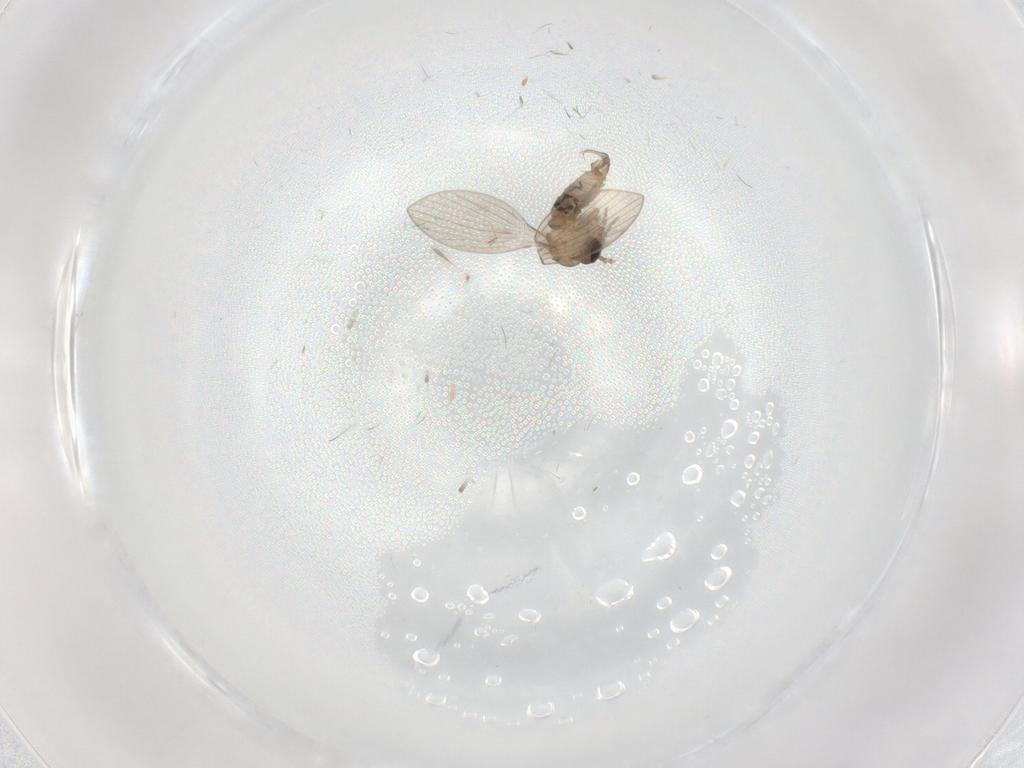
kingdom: Animalia
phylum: Arthropoda
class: Insecta
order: Diptera
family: Psychodidae
